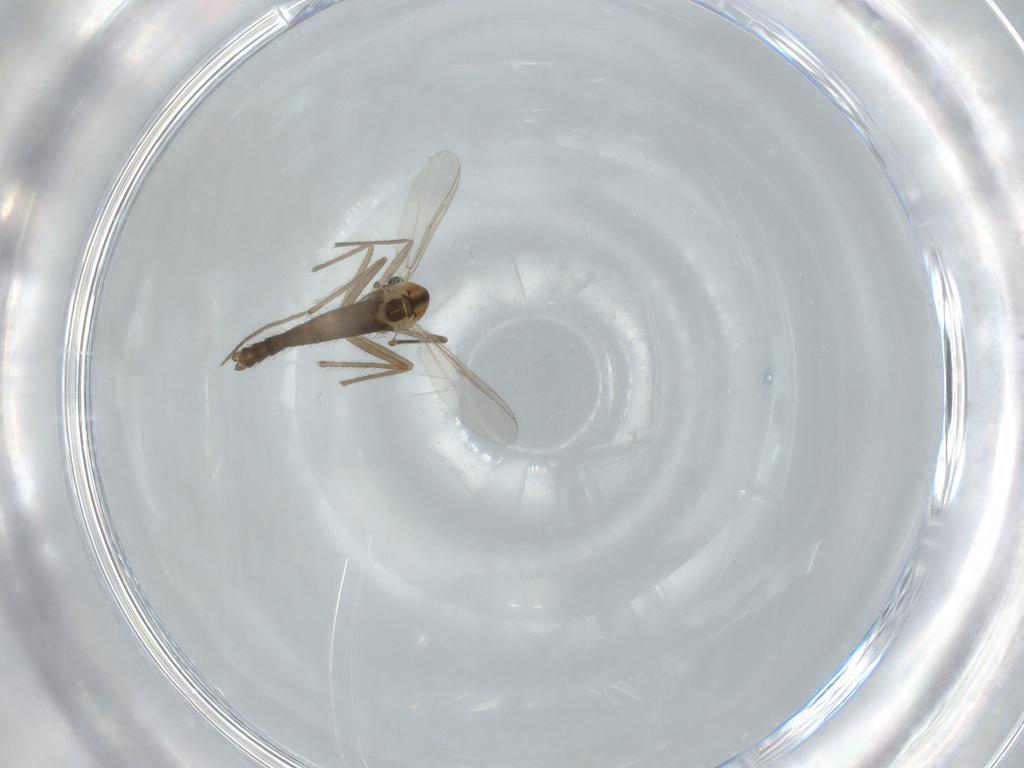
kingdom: Animalia
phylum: Arthropoda
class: Insecta
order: Diptera
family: Chironomidae
